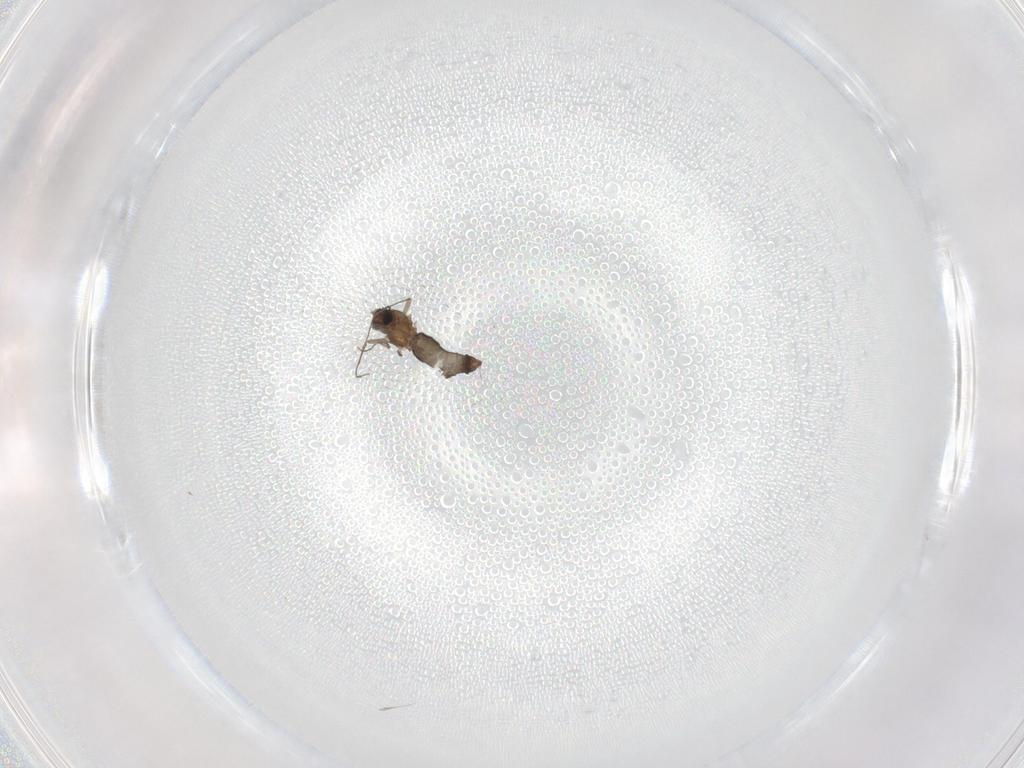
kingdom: Animalia
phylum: Arthropoda
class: Insecta
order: Diptera
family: Chironomidae
